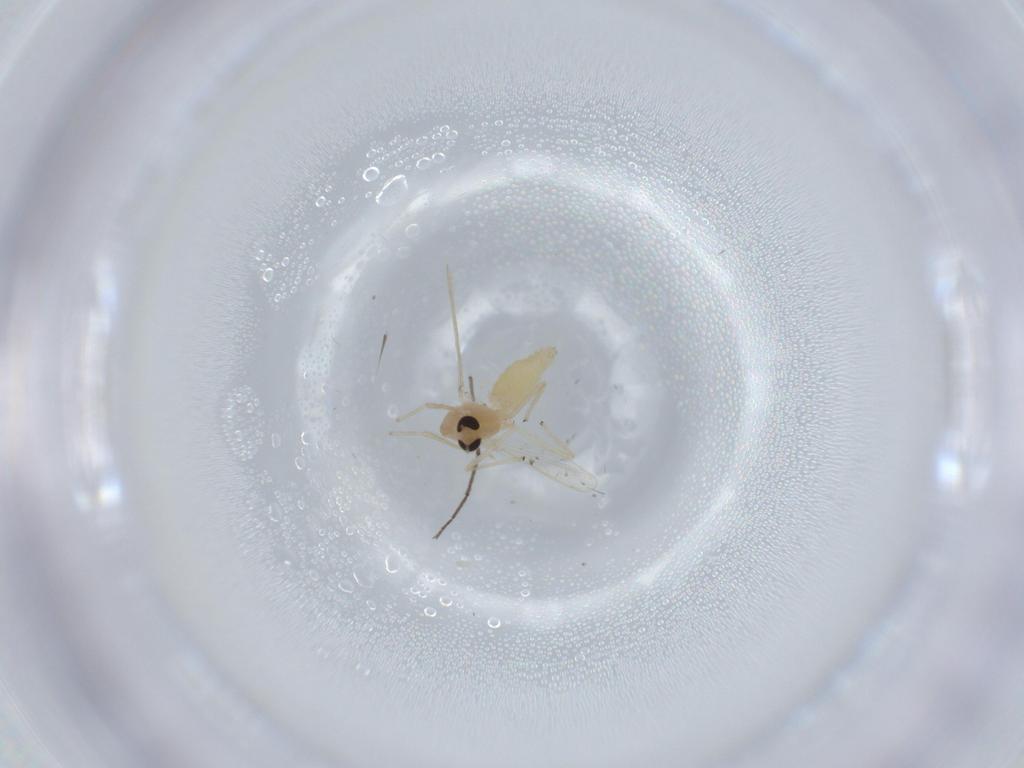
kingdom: Animalia
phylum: Arthropoda
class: Insecta
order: Diptera
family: Chironomidae
